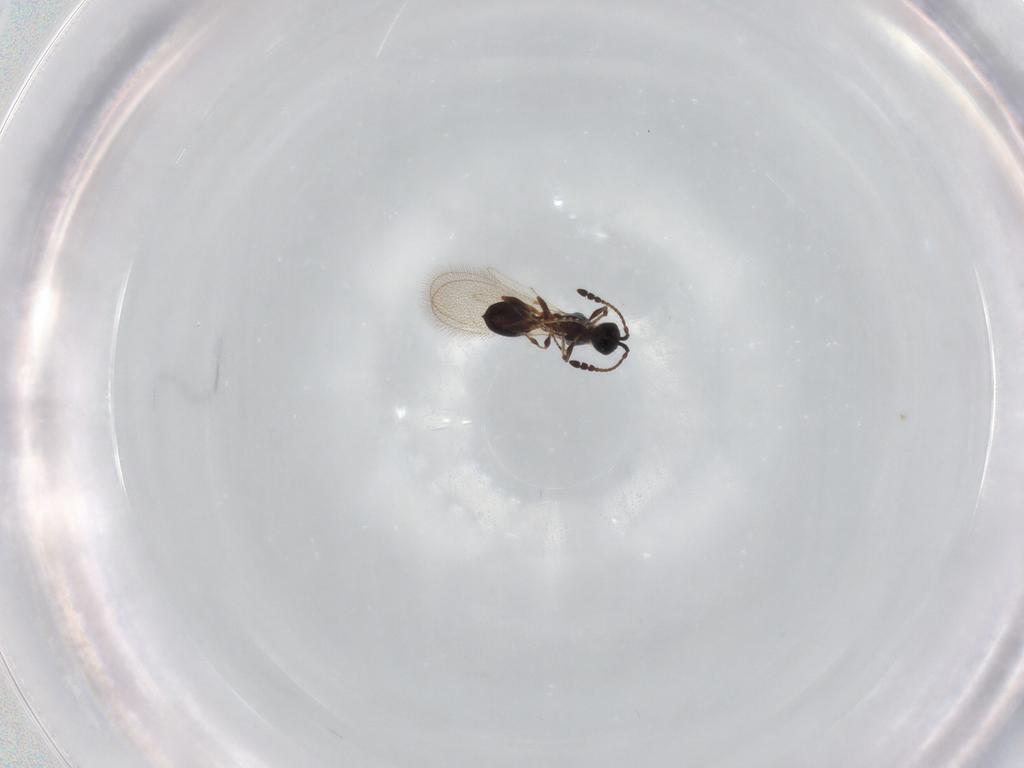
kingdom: Animalia
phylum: Arthropoda
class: Insecta
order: Hymenoptera
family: Diapriidae
